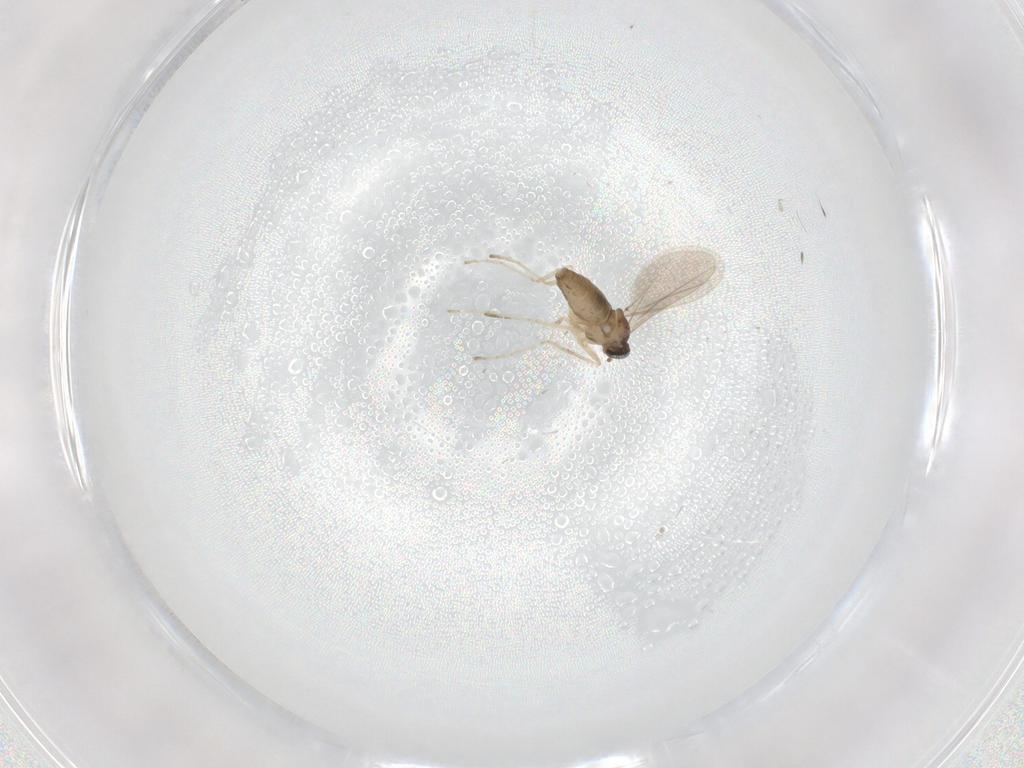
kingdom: Animalia
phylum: Arthropoda
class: Insecta
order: Diptera
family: Cecidomyiidae
